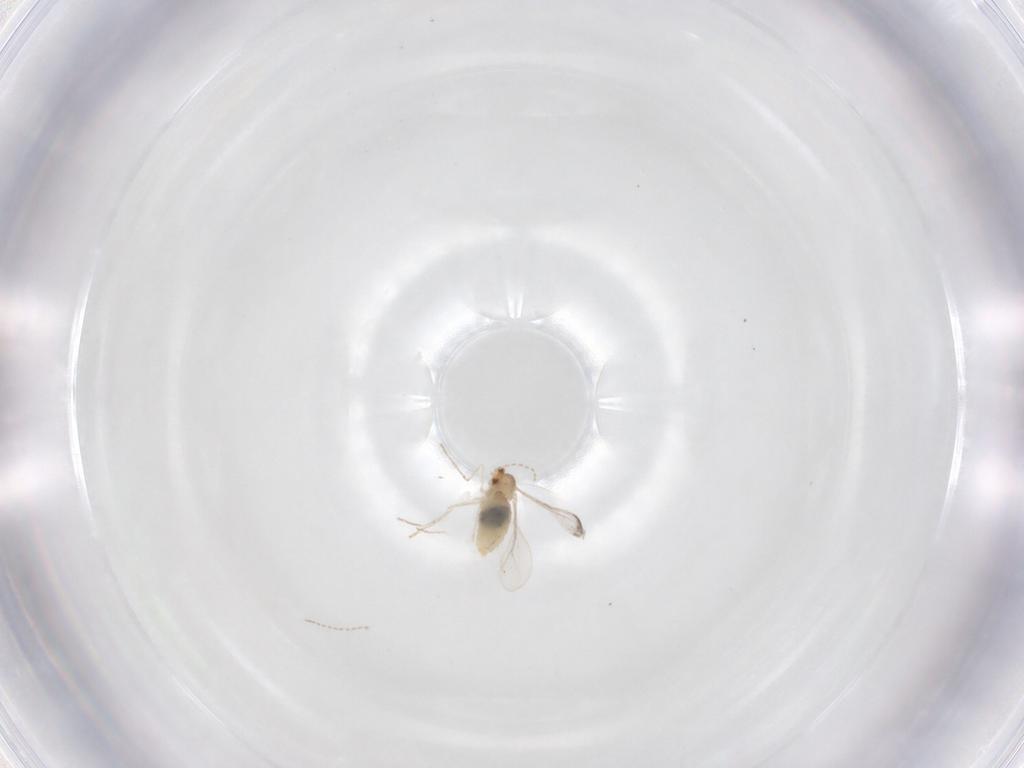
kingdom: Animalia
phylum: Arthropoda
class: Insecta
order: Diptera
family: Cecidomyiidae
